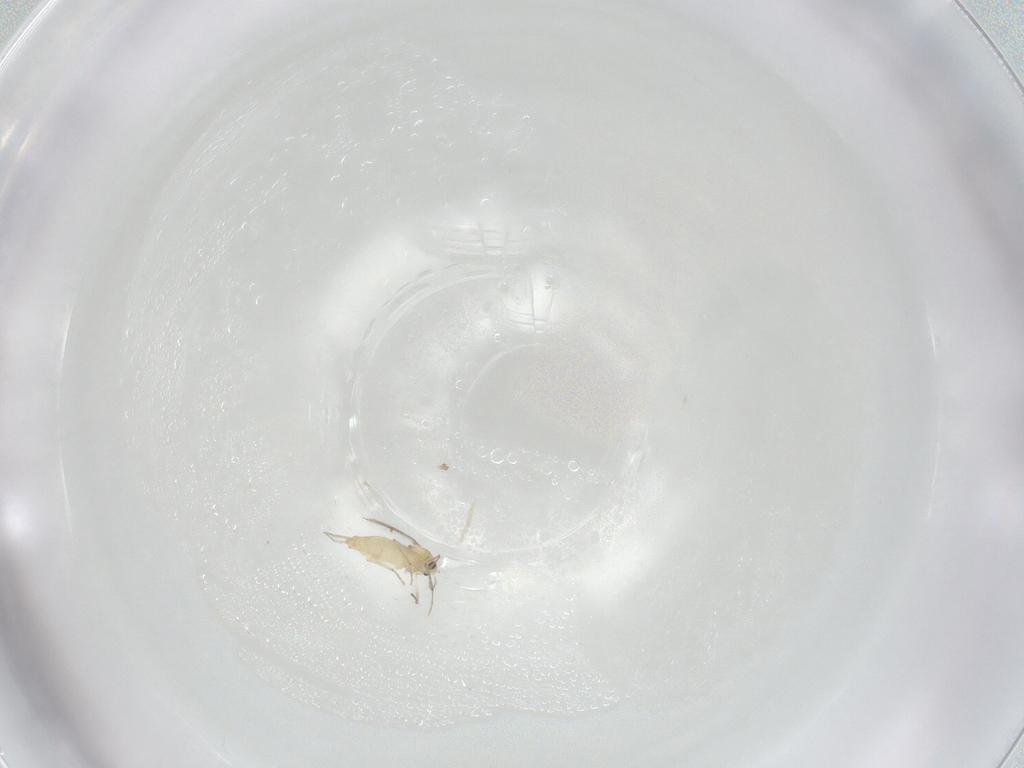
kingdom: Animalia
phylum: Arthropoda
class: Insecta
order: Diptera
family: Chironomidae
